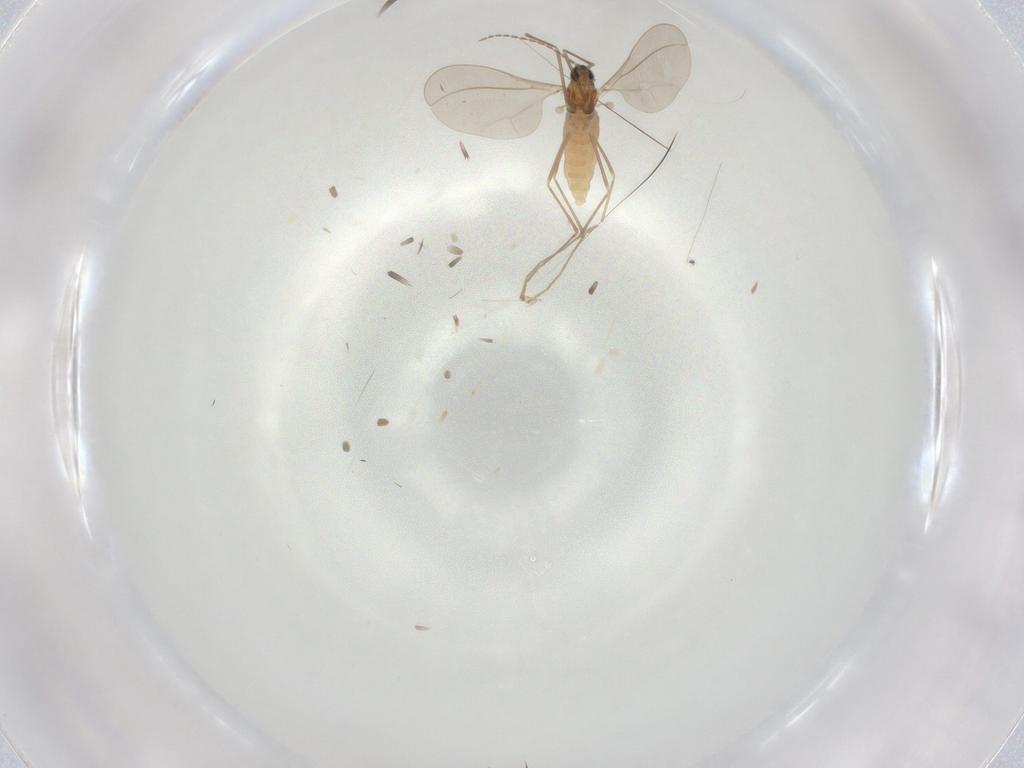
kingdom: Animalia
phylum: Arthropoda
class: Insecta
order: Diptera
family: Cecidomyiidae
